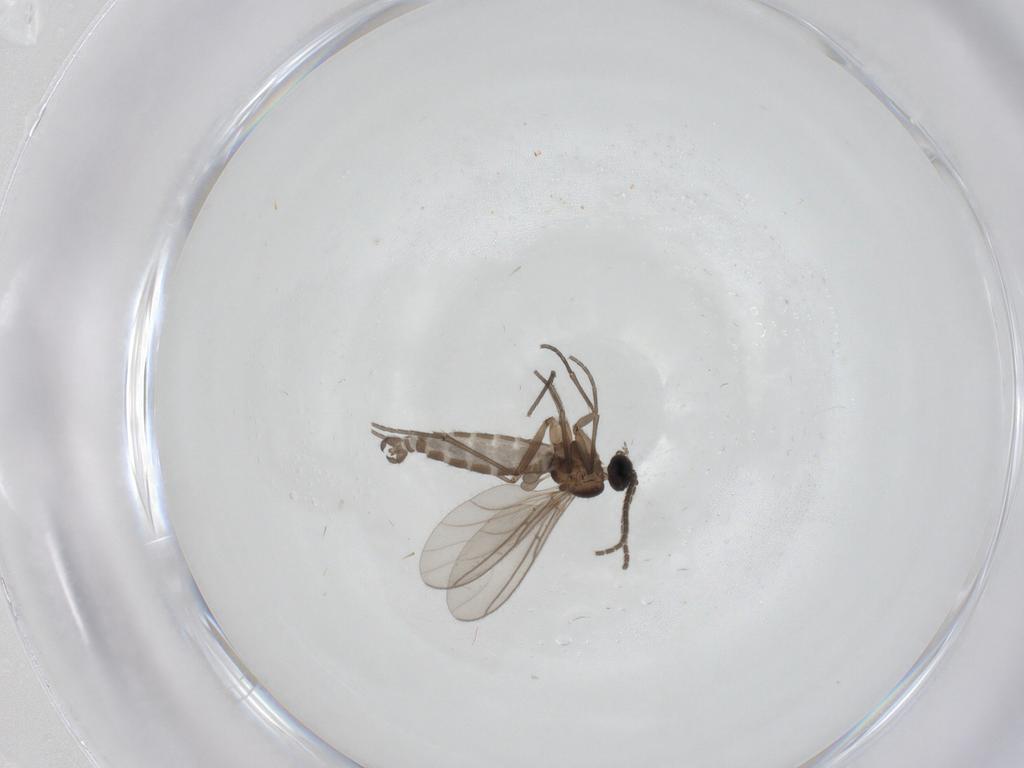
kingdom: Animalia
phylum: Arthropoda
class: Insecta
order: Diptera
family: Sciaridae
